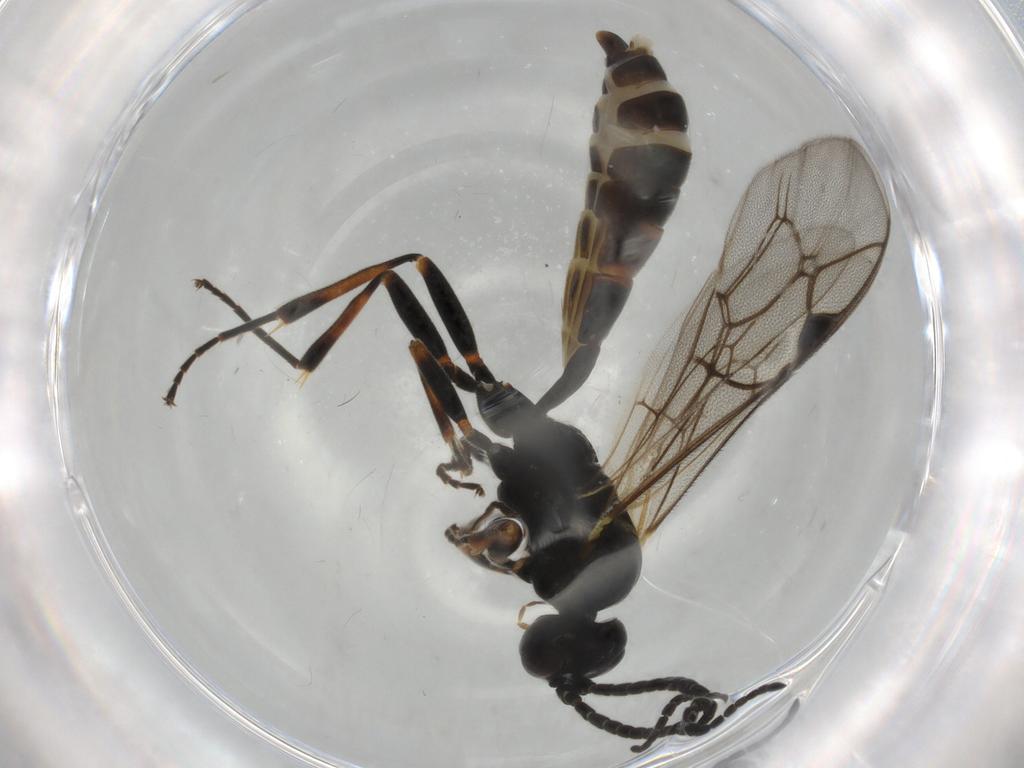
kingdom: Animalia
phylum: Arthropoda
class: Insecta
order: Hymenoptera
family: Ichneumonidae
